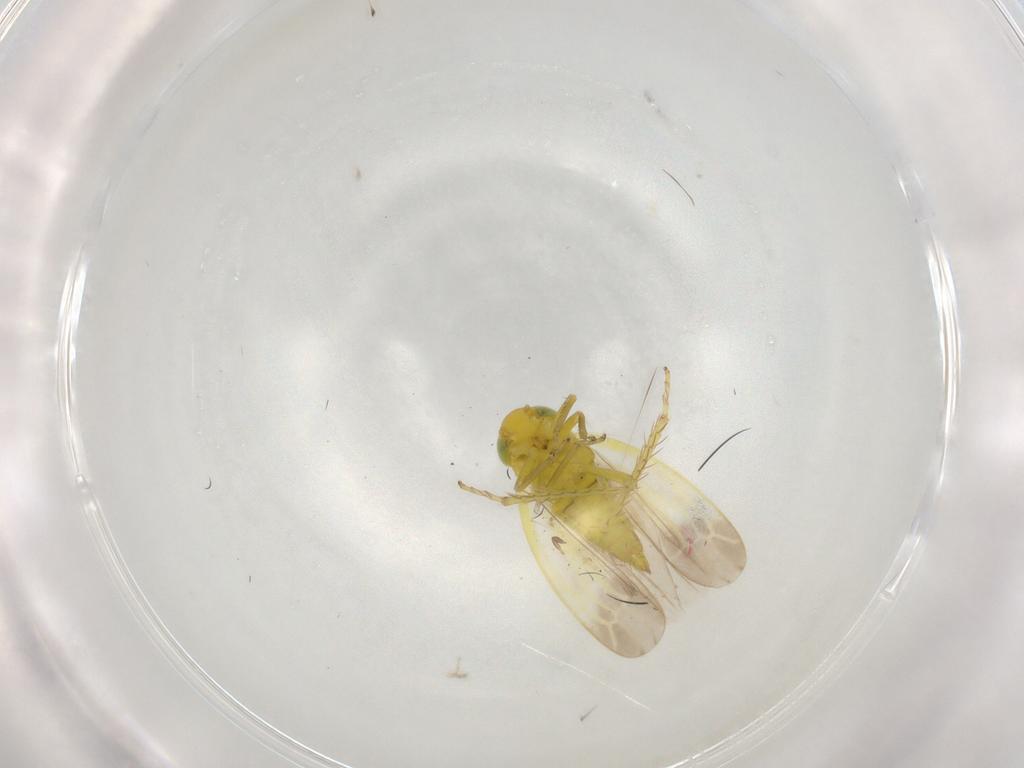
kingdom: Animalia
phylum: Arthropoda
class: Insecta
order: Hemiptera
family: Cicadellidae
